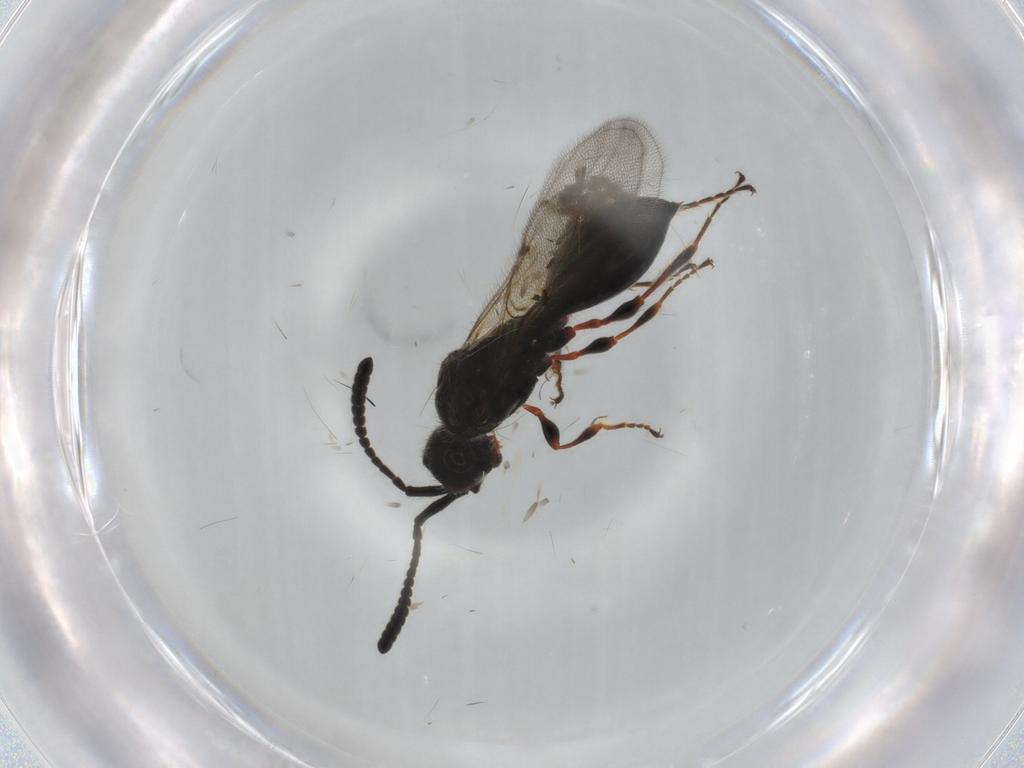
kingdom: Animalia
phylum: Arthropoda
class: Insecta
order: Hymenoptera
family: Diapriidae
